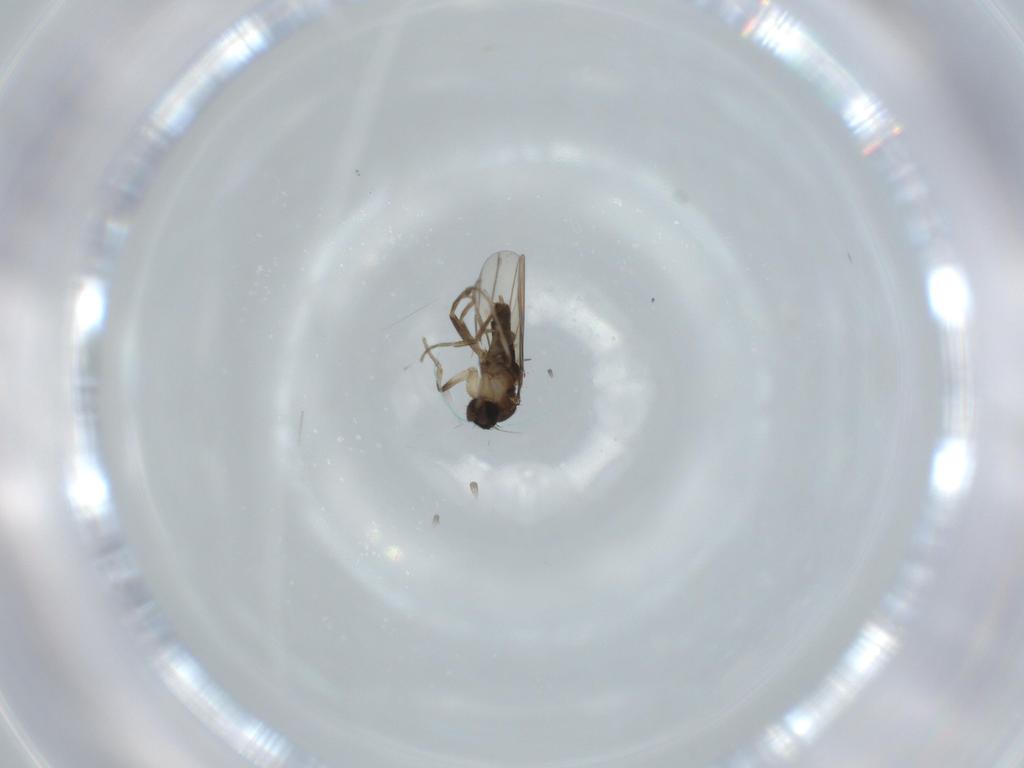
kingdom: Animalia
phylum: Arthropoda
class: Insecta
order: Diptera
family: Phoridae
